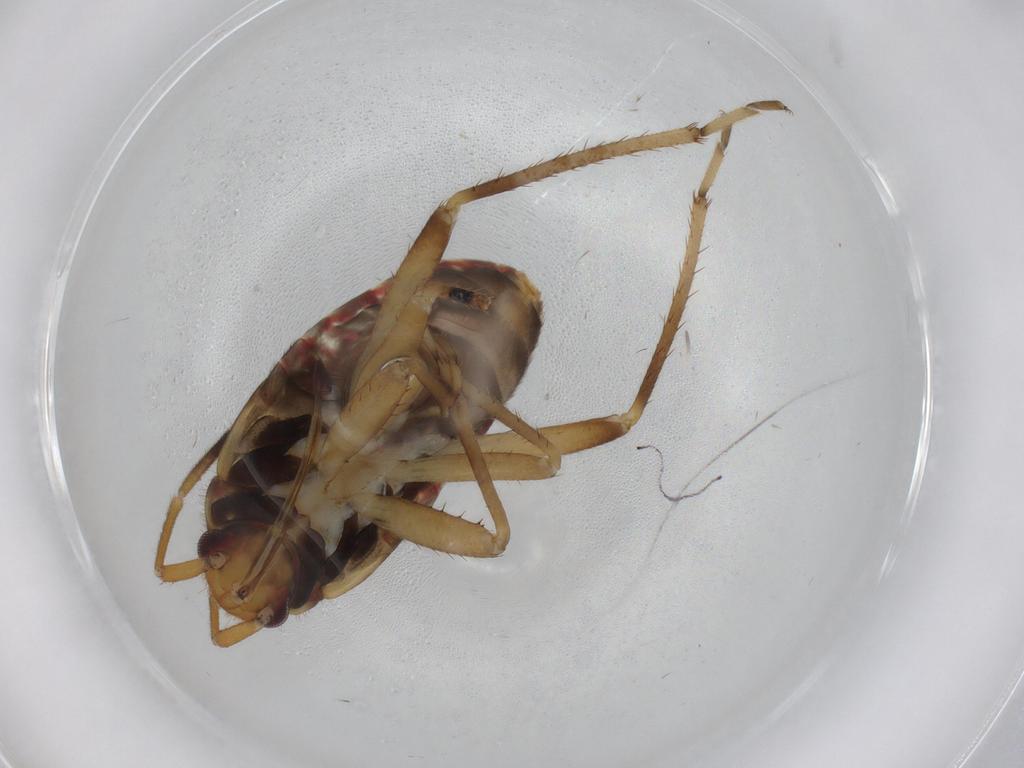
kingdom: Animalia
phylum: Arthropoda
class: Insecta
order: Hemiptera
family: Rhyparochromidae
